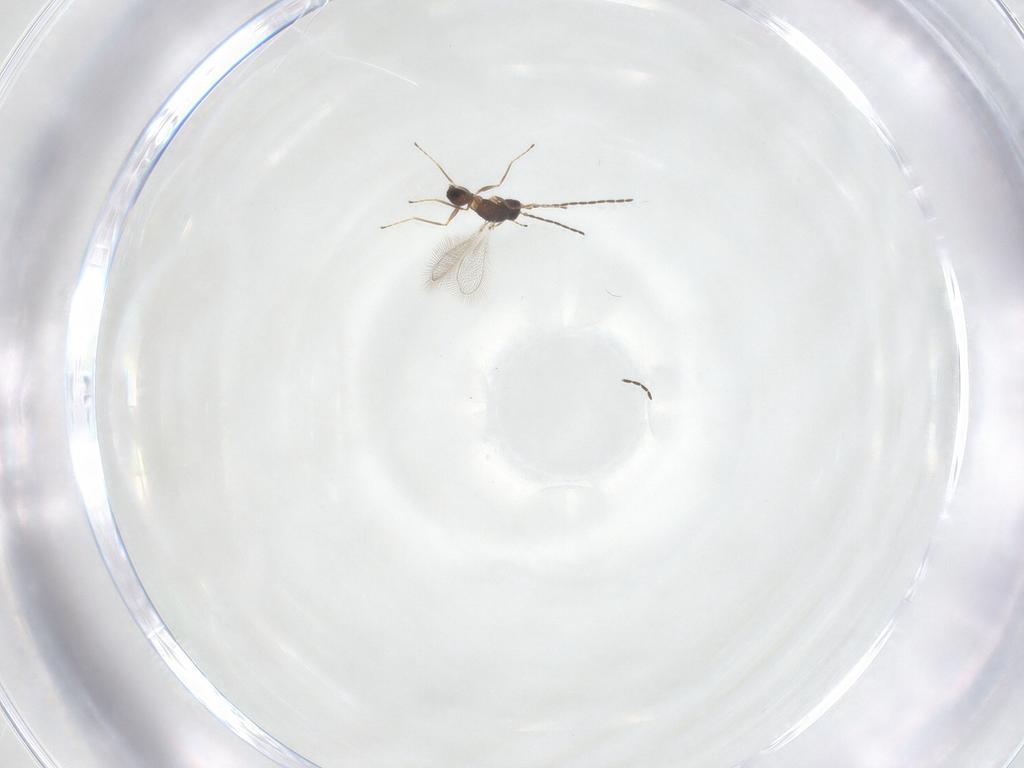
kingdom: Animalia
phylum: Arthropoda
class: Insecta
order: Hymenoptera
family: Mymaridae
